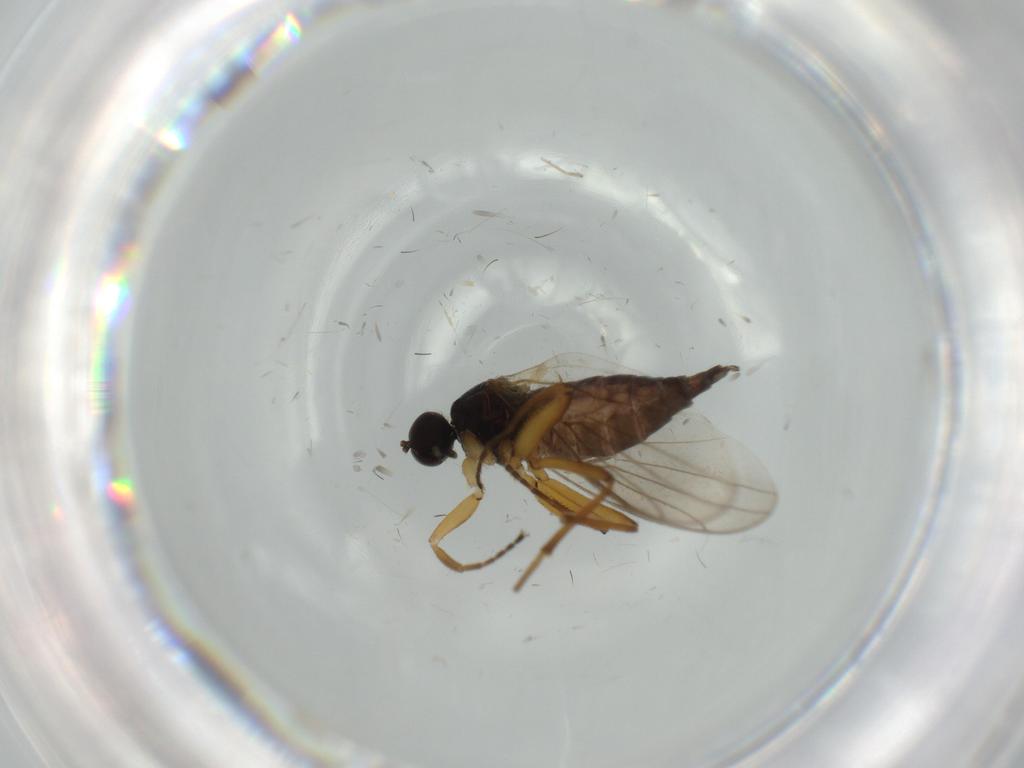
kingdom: Animalia
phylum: Arthropoda
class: Insecta
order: Diptera
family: Hybotidae
